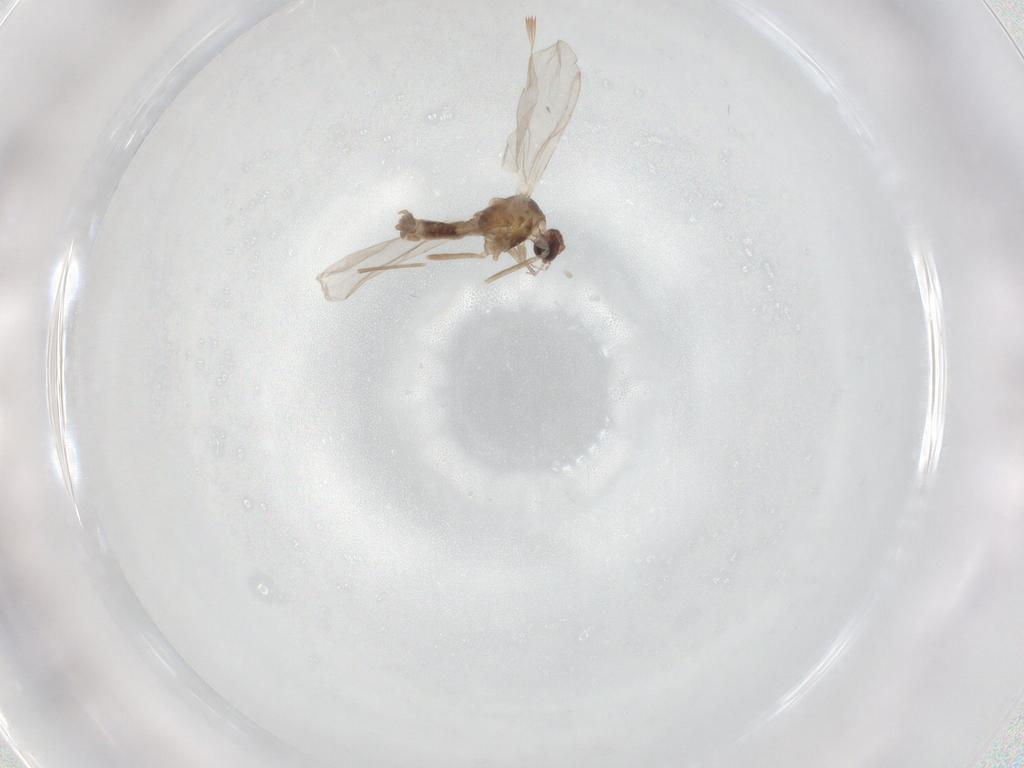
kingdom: Animalia
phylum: Arthropoda
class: Insecta
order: Diptera
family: Cecidomyiidae
